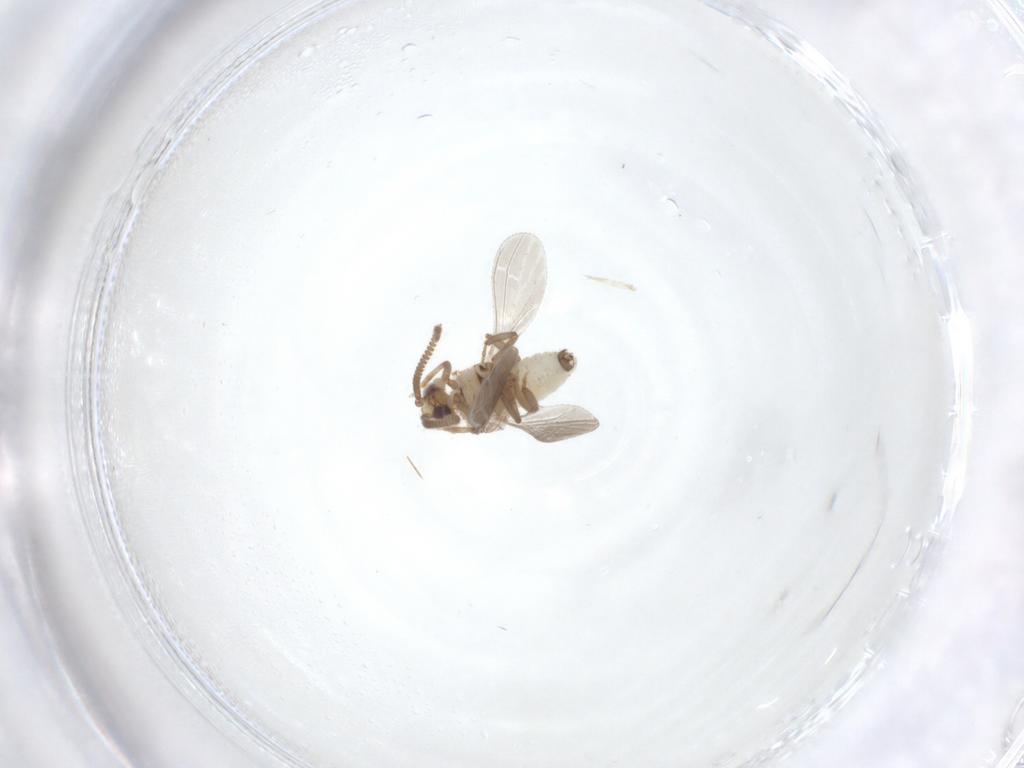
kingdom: Animalia
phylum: Arthropoda
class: Insecta
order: Neuroptera
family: Coniopterygidae
